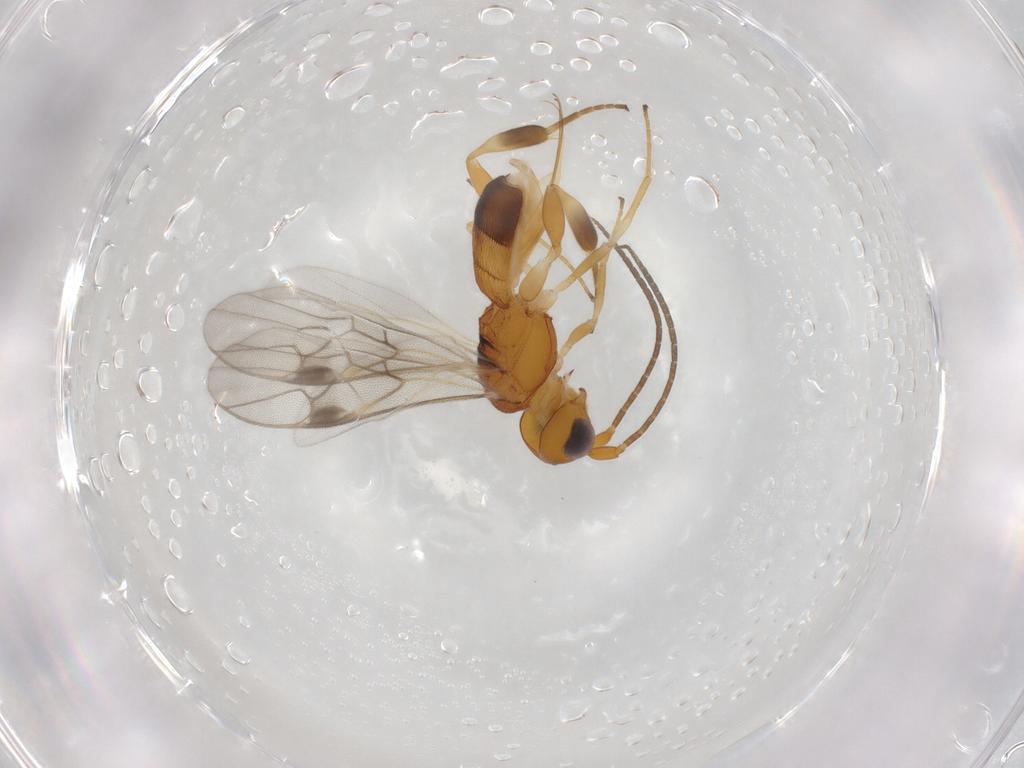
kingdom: Animalia
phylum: Arthropoda
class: Insecta
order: Hymenoptera
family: Braconidae
